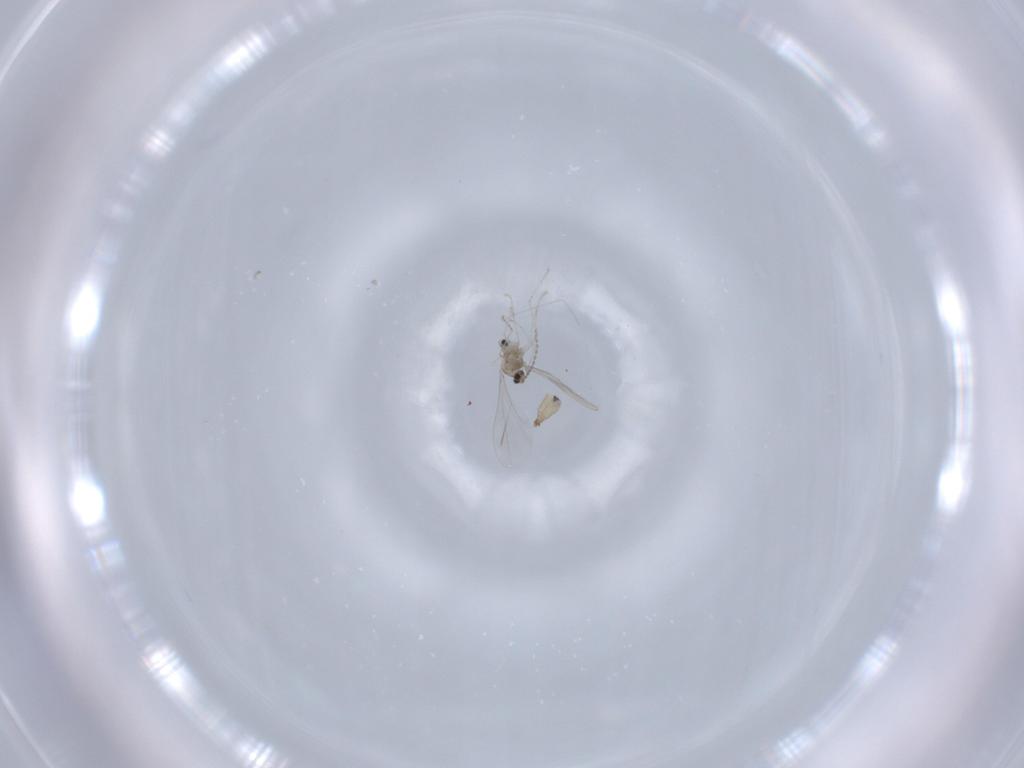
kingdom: Animalia
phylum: Arthropoda
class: Insecta
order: Diptera
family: Cecidomyiidae
